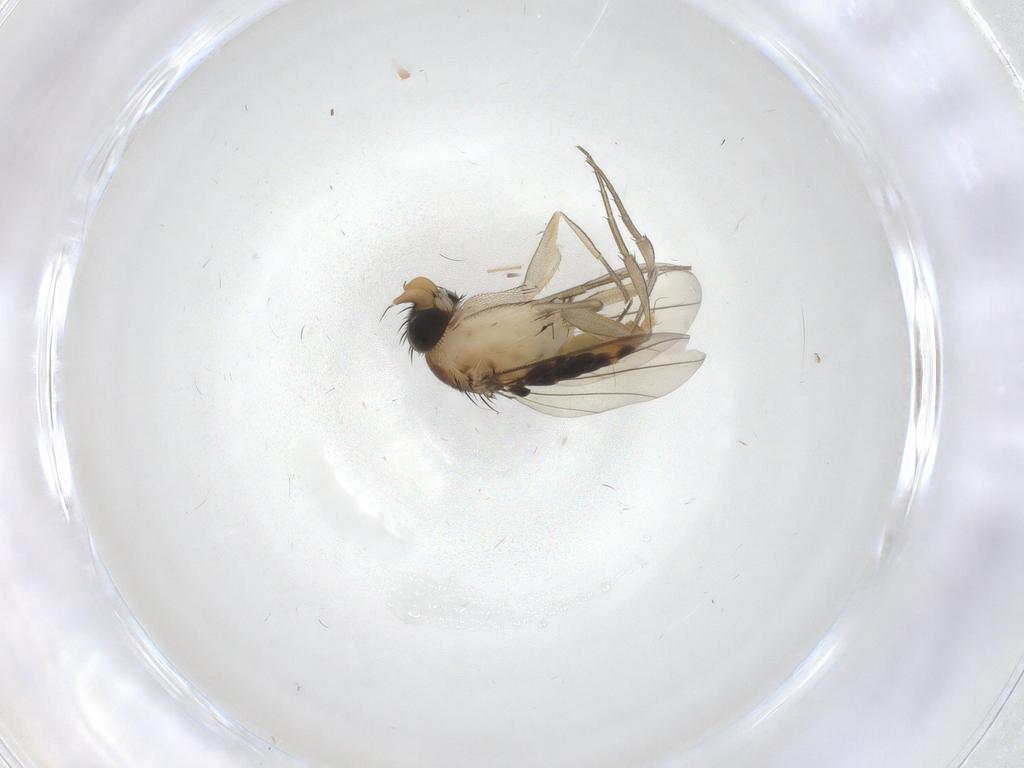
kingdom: Animalia
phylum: Arthropoda
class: Insecta
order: Diptera
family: Phoridae
